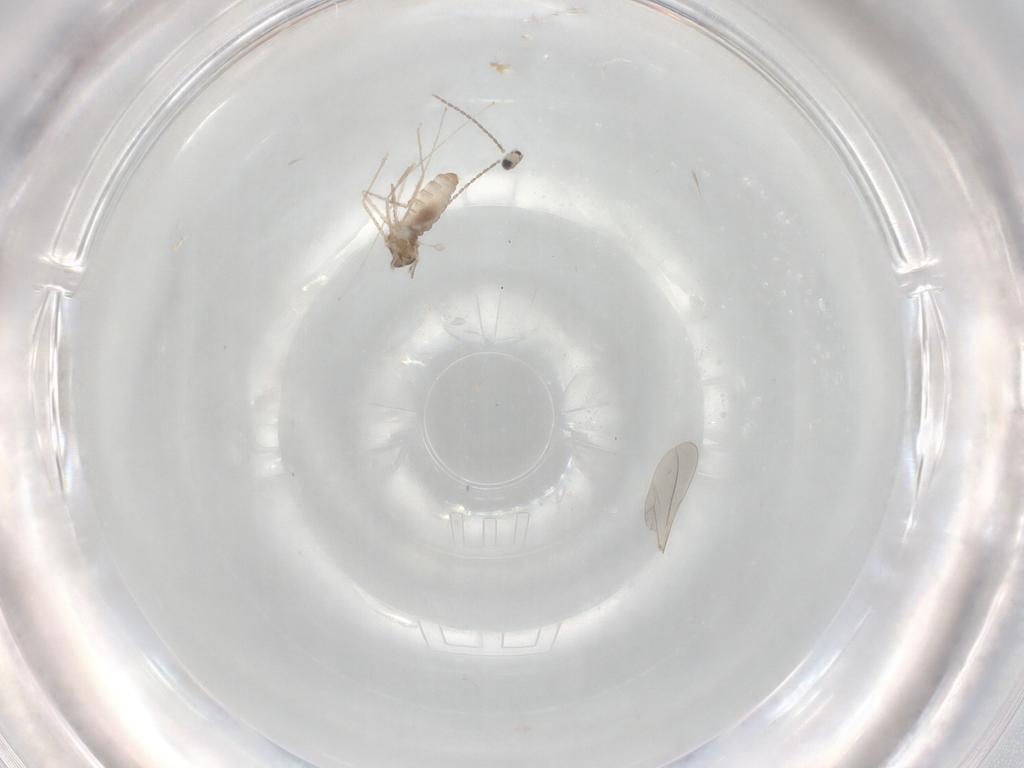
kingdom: Animalia
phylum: Arthropoda
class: Insecta
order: Diptera
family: Cecidomyiidae
